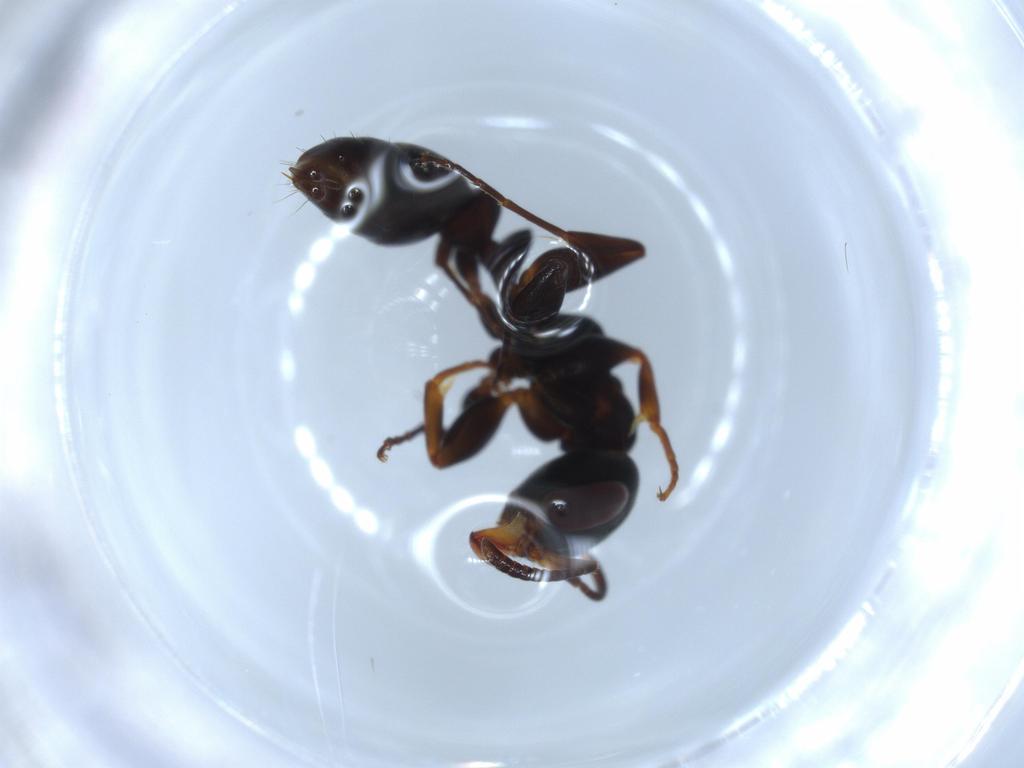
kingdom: Animalia
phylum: Arthropoda
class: Insecta
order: Hymenoptera
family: Formicidae
